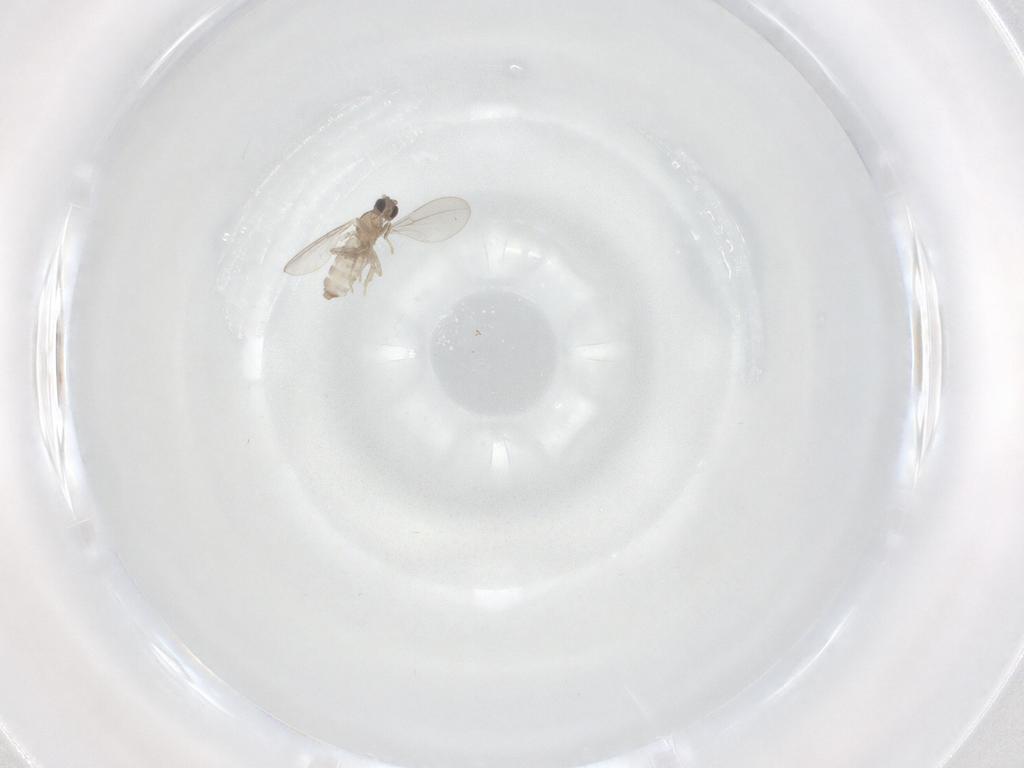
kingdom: Animalia
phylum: Arthropoda
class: Insecta
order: Diptera
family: Cecidomyiidae
